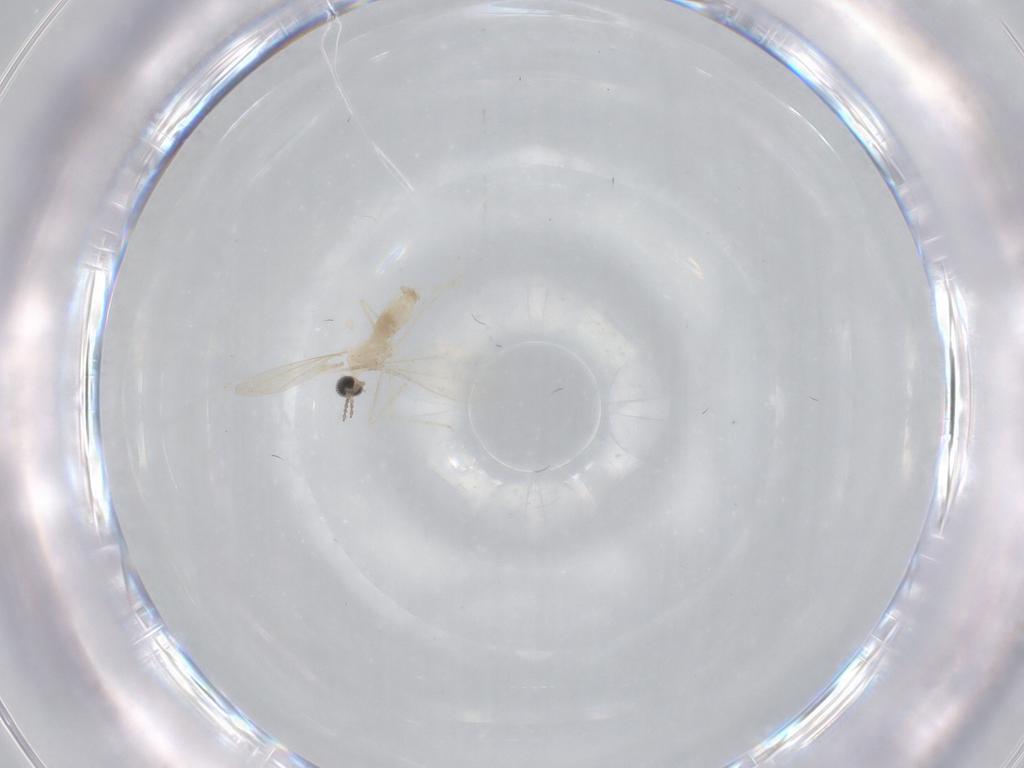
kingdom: Animalia
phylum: Arthropoda
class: Insecta
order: Diptera
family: Cecidomyiidae
